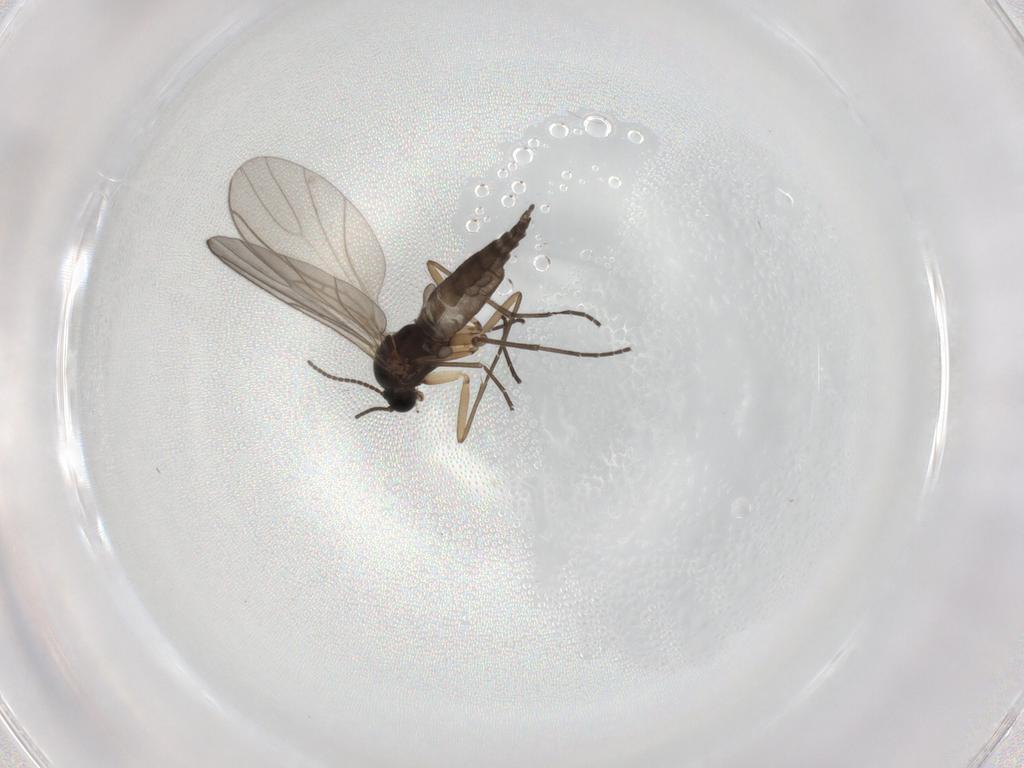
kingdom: Animalia
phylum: Arthropoda
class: Insecta
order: Diptera
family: Sciaridae
